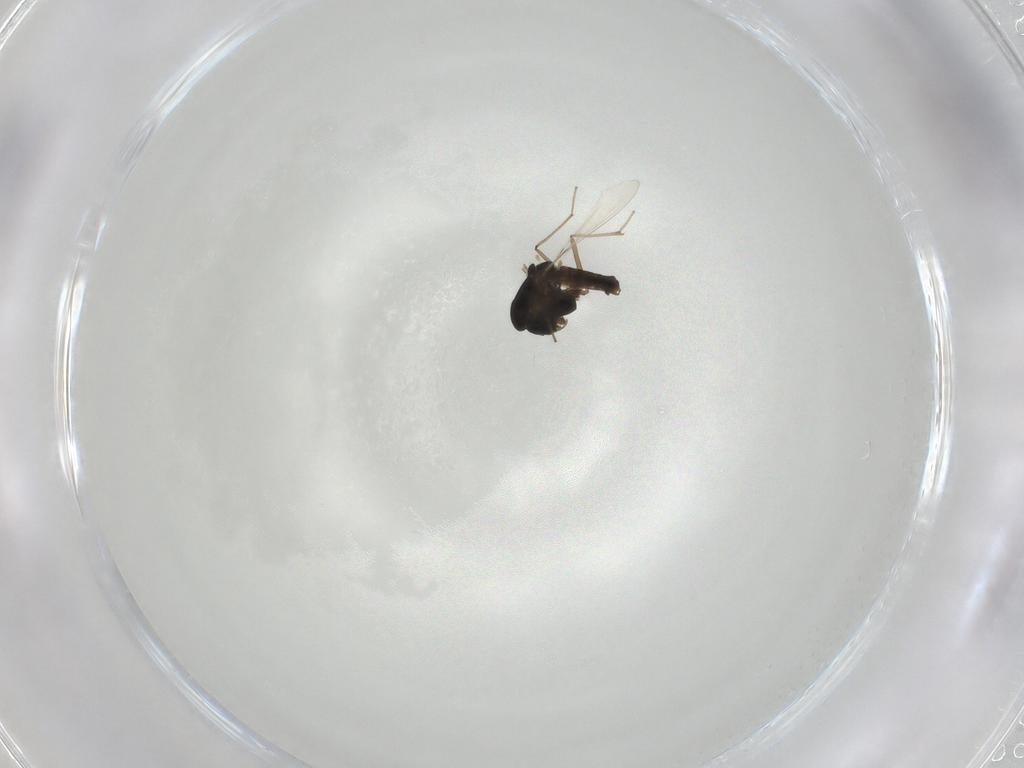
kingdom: Animalia
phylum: Arthropoda
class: Insecta
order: Diptera
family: Chironomidae
